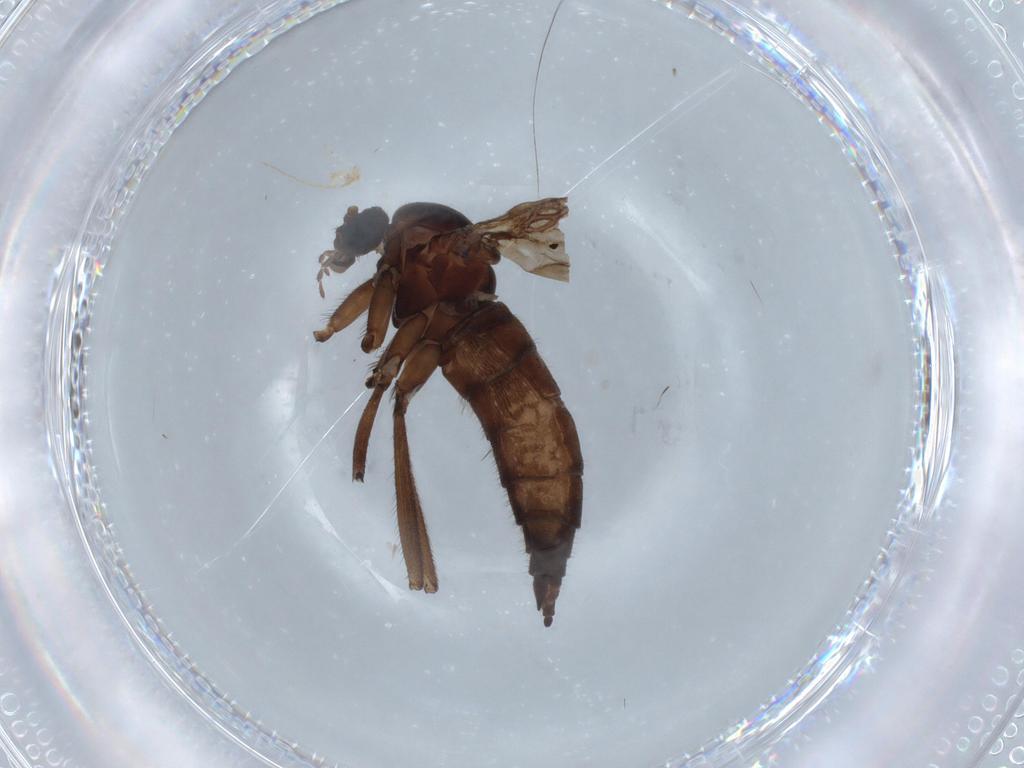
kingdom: Animalia
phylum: Arthropoda
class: Insecta
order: Diptera
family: Sciaridae
